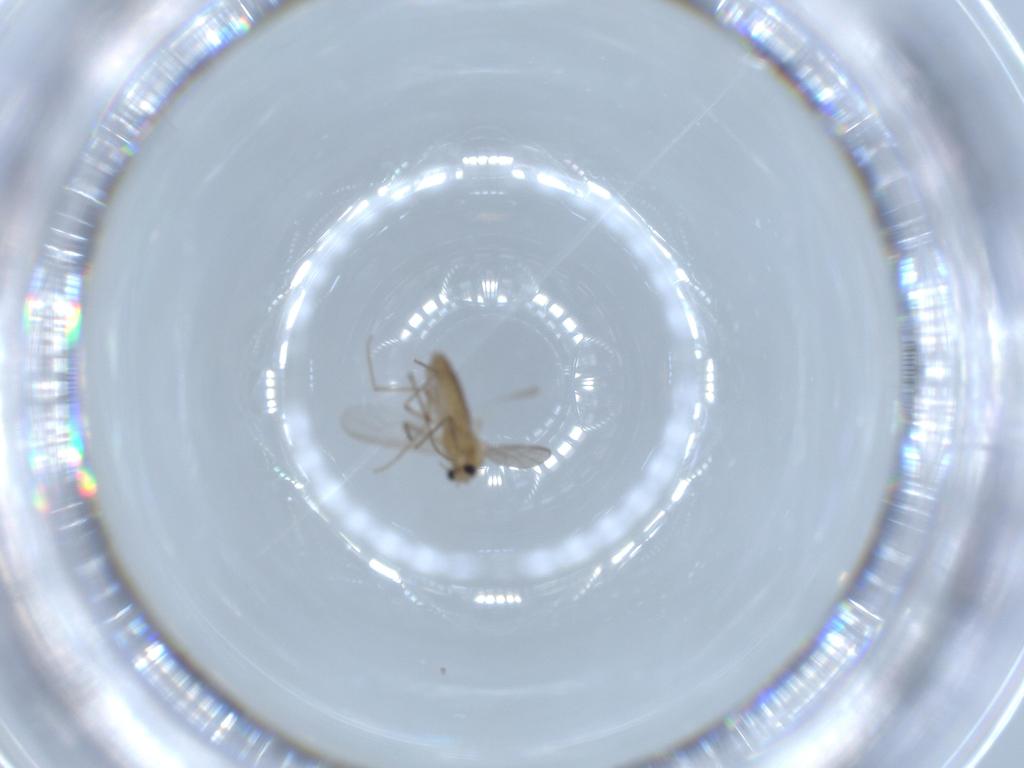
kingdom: Animalia
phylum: Arthropoda
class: Insecta
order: Diptera
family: Chironomidae
